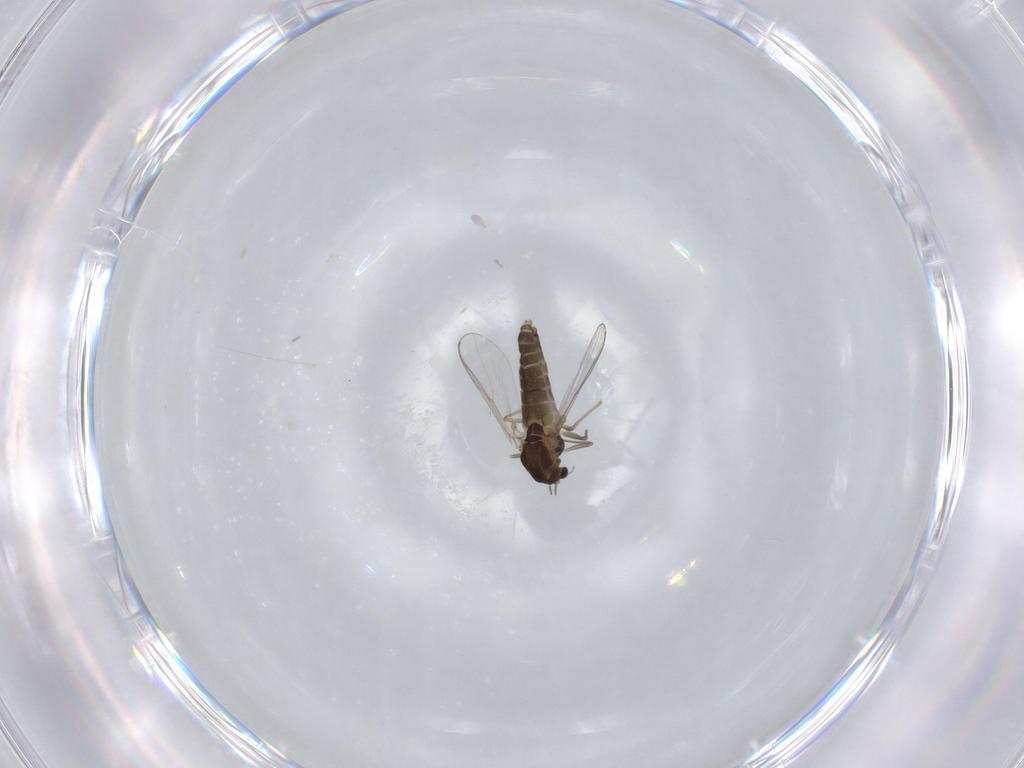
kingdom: Animalia
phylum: Arthropoda
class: Insecta
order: Diptera
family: Chironomidae
